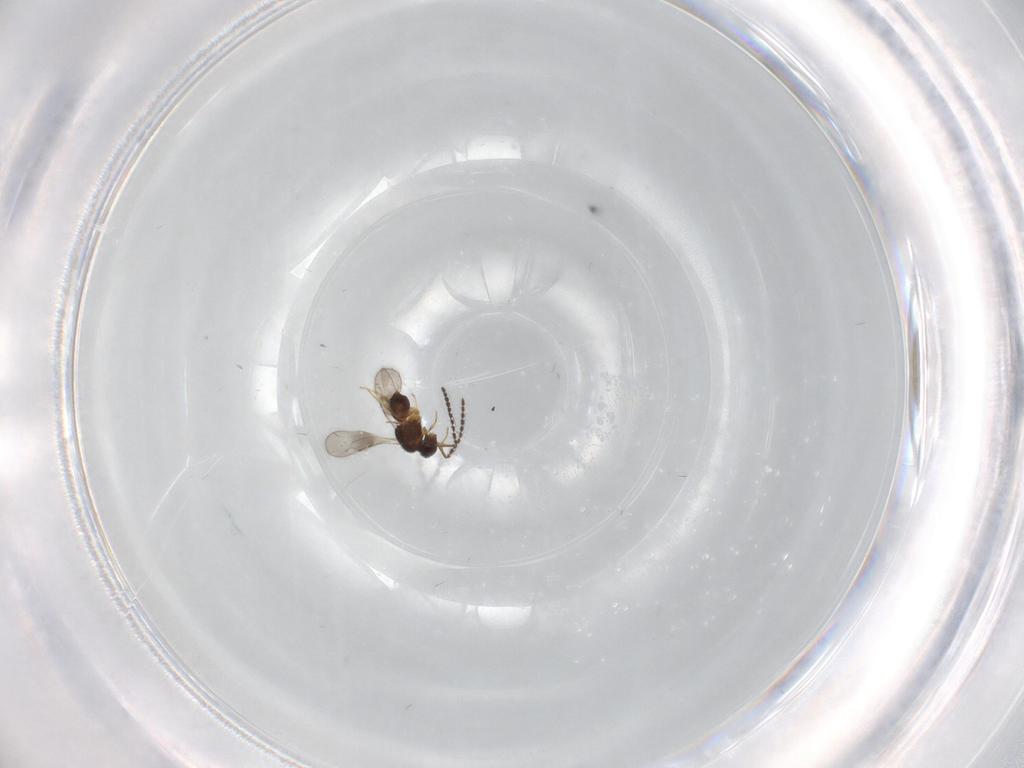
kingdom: Animalia
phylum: Arthropoda
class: Insecta
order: Hymenoptera
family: Ceraphronidae
